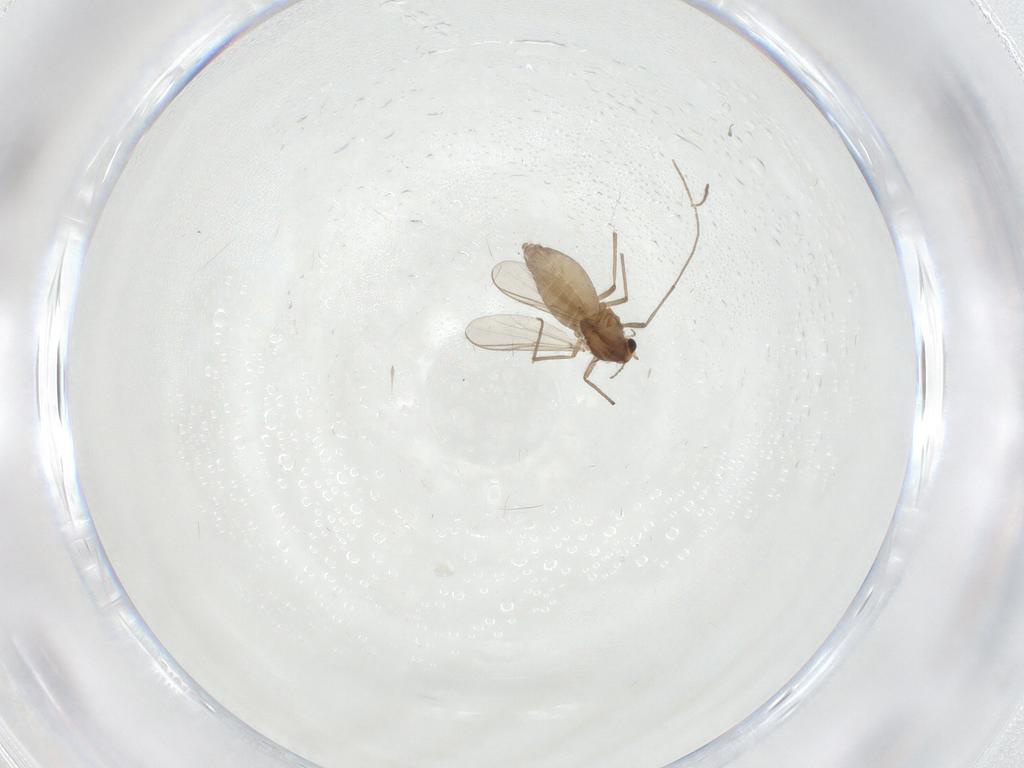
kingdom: Animalia
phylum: Arthropoda
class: Insecta
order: Diptera
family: Chironomidae
